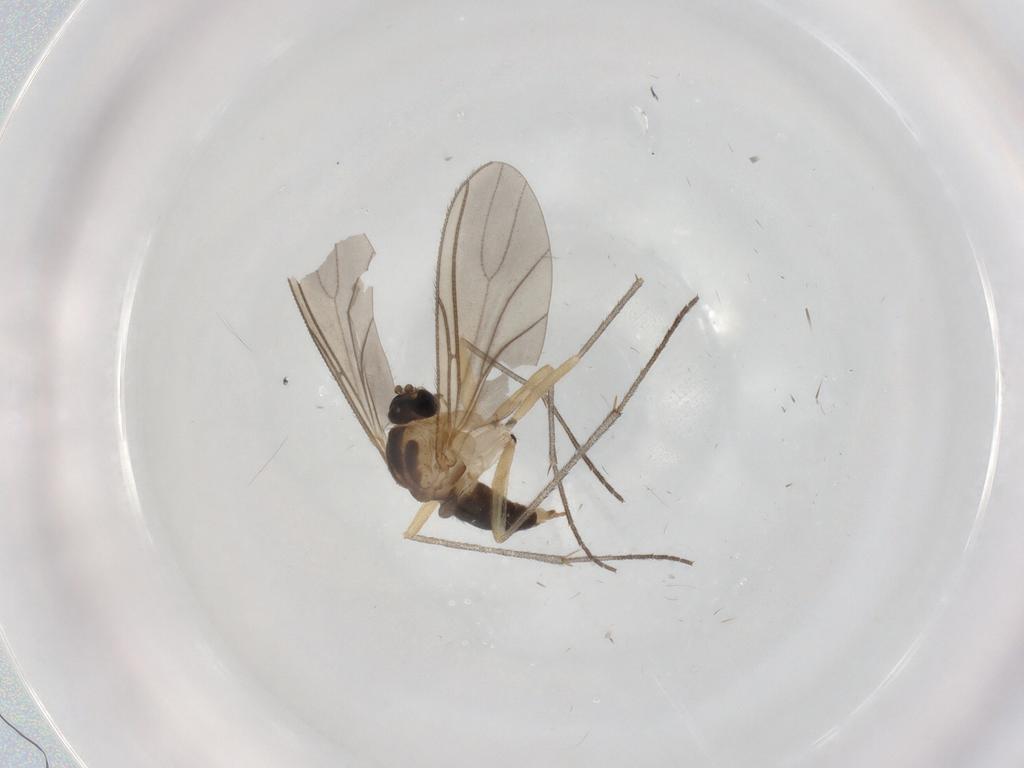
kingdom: Animalia
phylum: Arthropoda
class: Insecta
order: Diptera
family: Sciaridae
